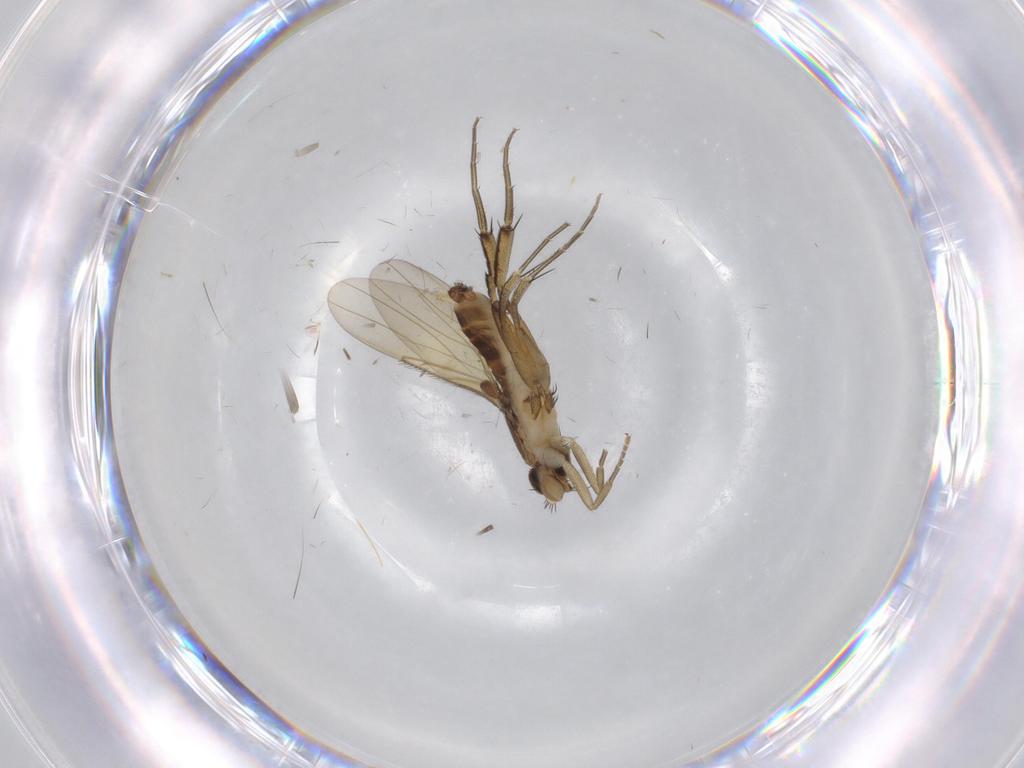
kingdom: Animalia
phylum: Arthropoda
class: Insecta
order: Diptera
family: Phoridae
